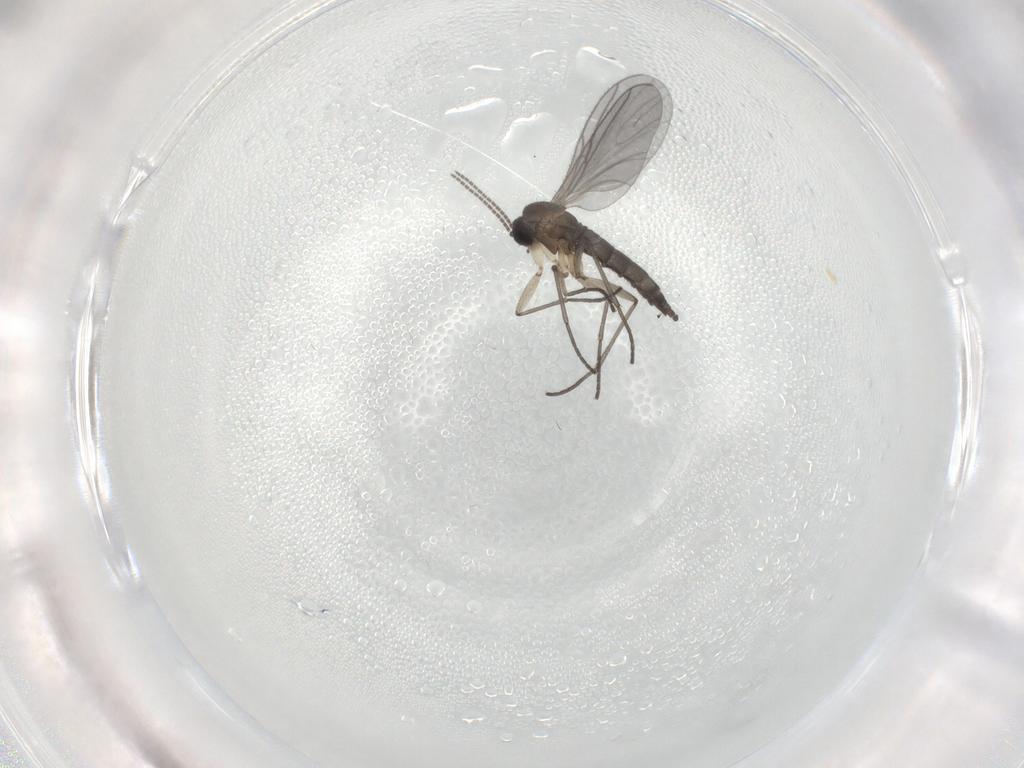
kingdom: Animalia
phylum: Arthropoda
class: Insecta
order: Diptera
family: Sciaridae
